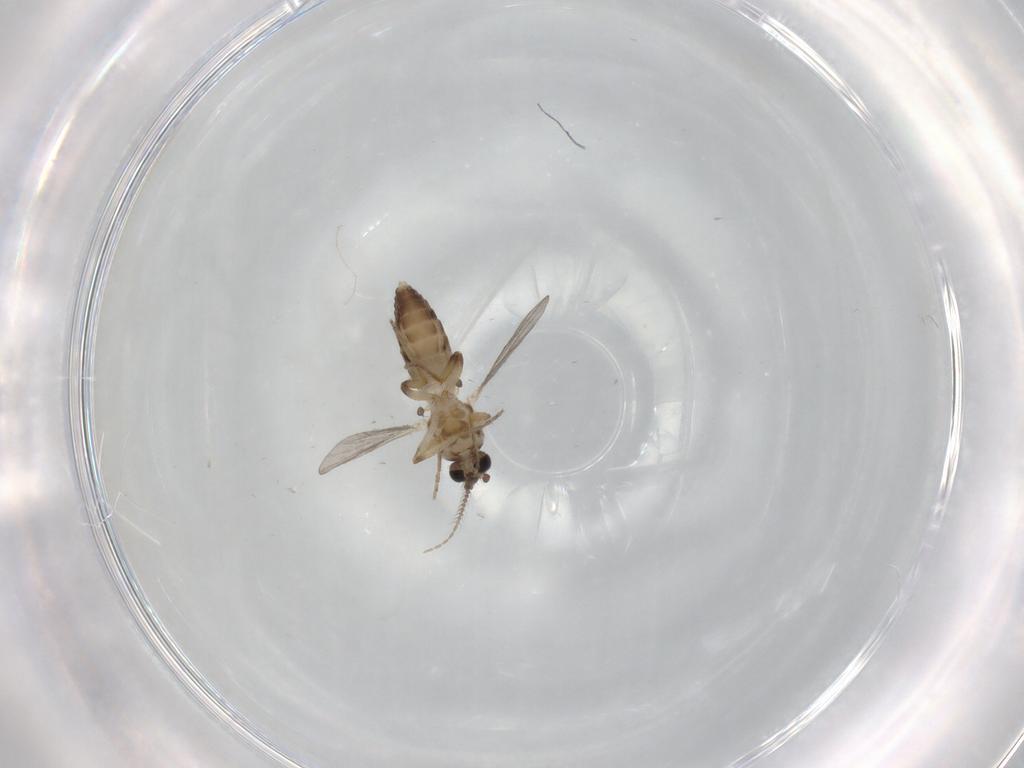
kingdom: Animalia
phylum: Arthropoda
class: Insecta
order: Diptera
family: Ceratopogonidae
